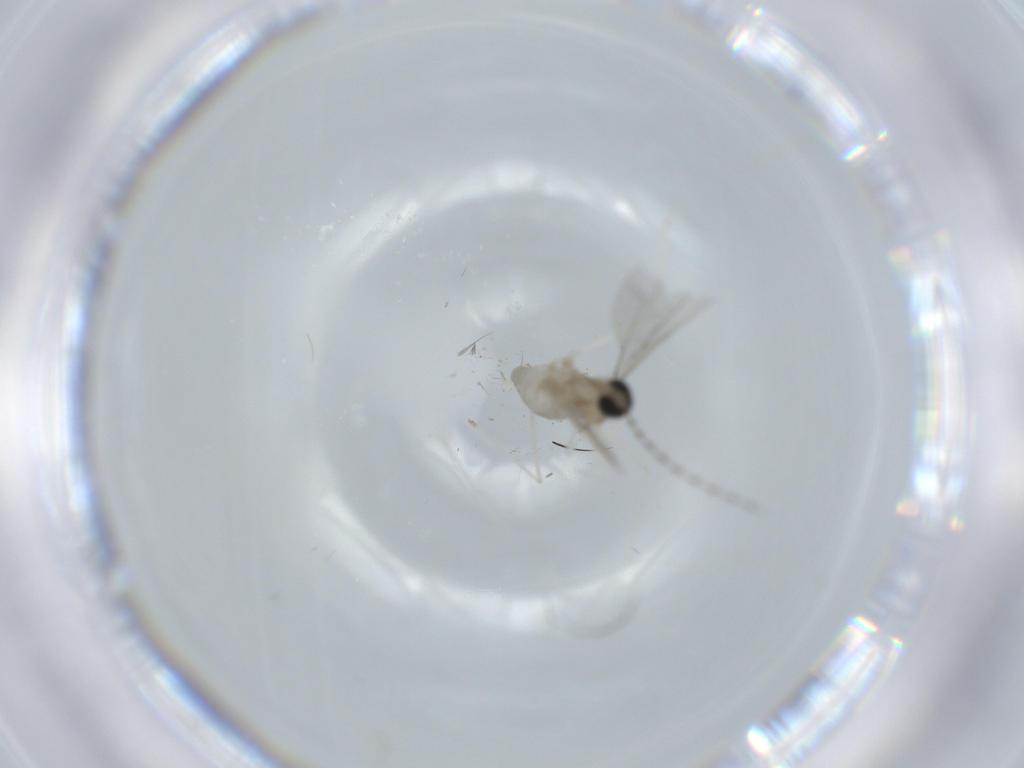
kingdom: Animalia
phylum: Arthropoda
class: Insecta
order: Diptera
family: Cecidomyiidae
